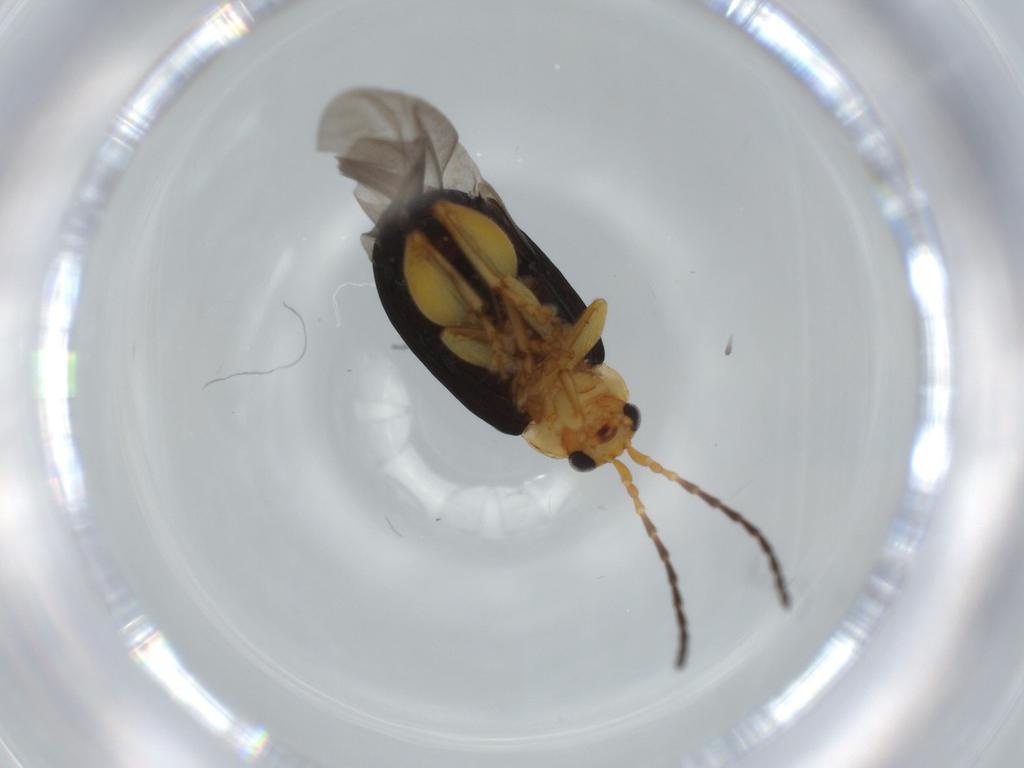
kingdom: Animalia
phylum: Arthropoda
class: Insecta
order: Coleoptera
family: Chrysomelidae
